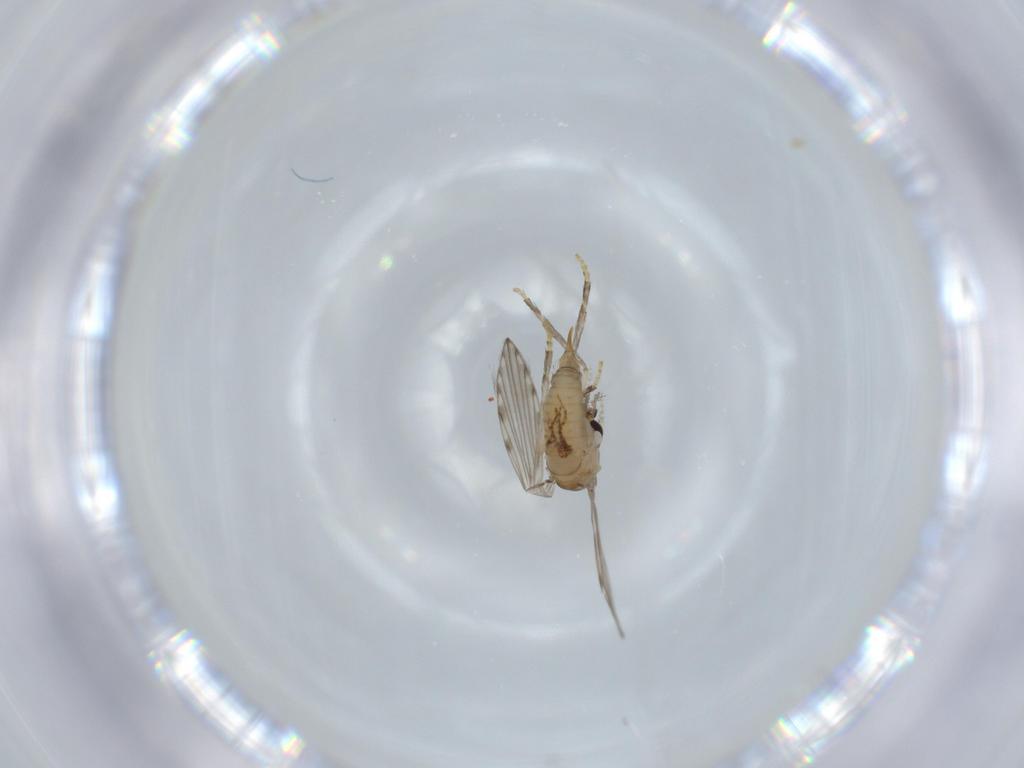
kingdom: Animalia
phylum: Arthropoda
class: Insecta
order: Diptera
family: Psychodidae
